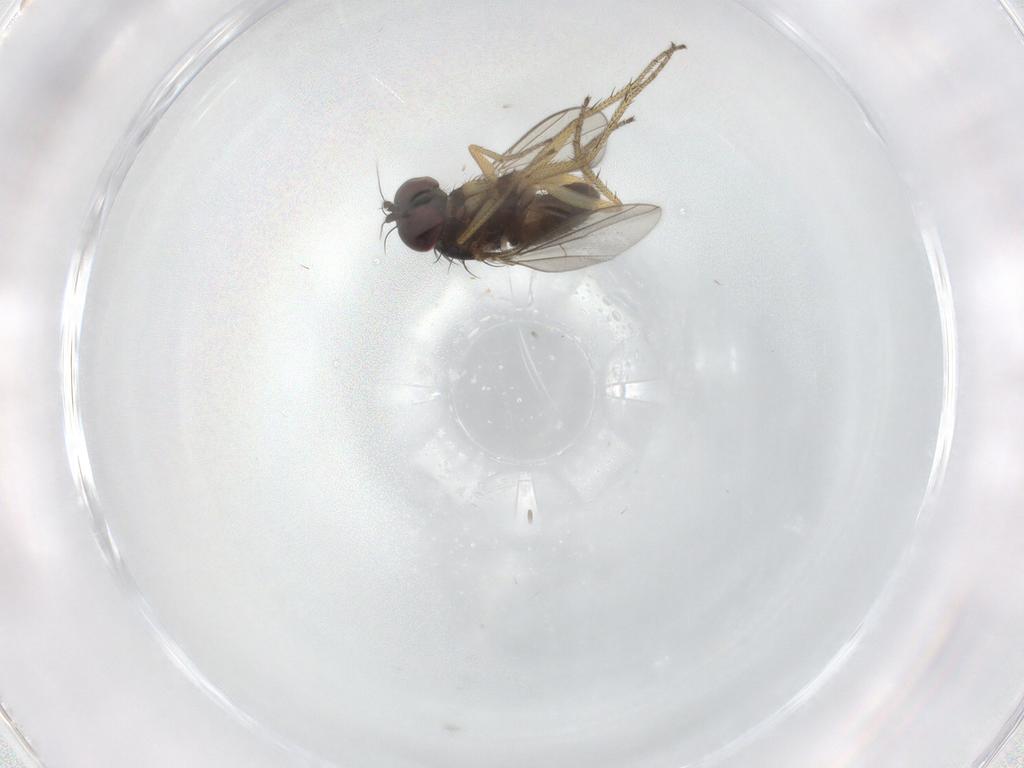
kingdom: Animalia
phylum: Arthropoda
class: Insecta
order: Diptera
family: Dolichopodidae
